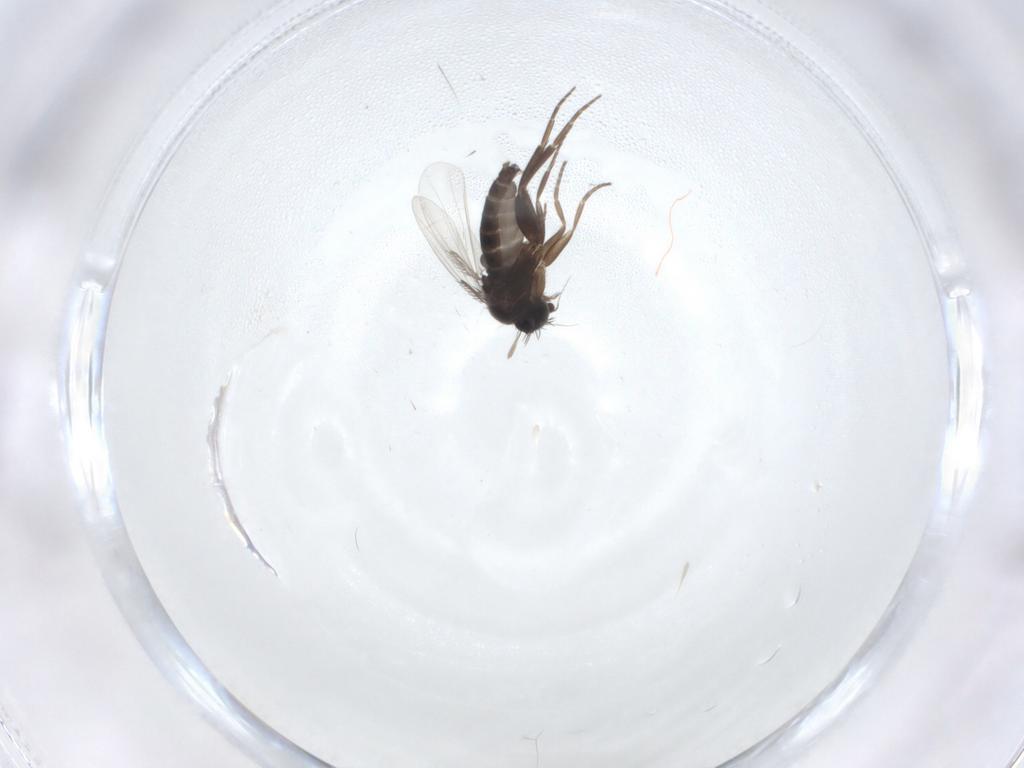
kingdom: Animalia
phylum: Arthropoda
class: Insecta
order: Diptera
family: Phoridae
